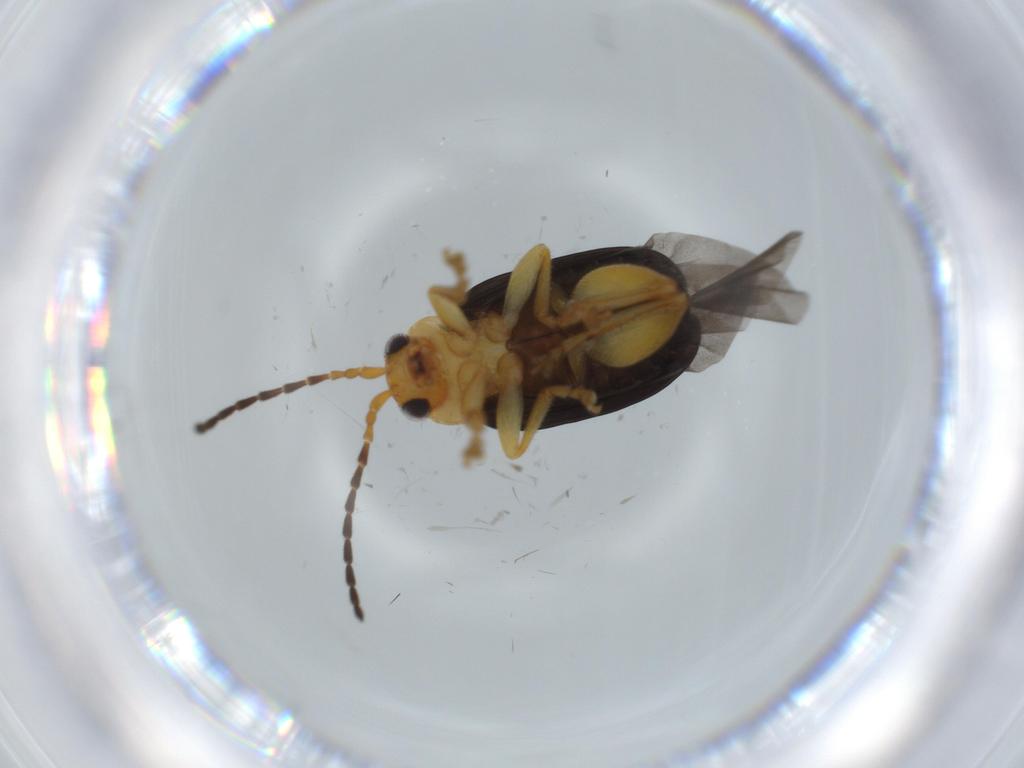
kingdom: Animalia
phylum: Arthropoda
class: Insecta
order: Coleoptera
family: Chrysomelidae
